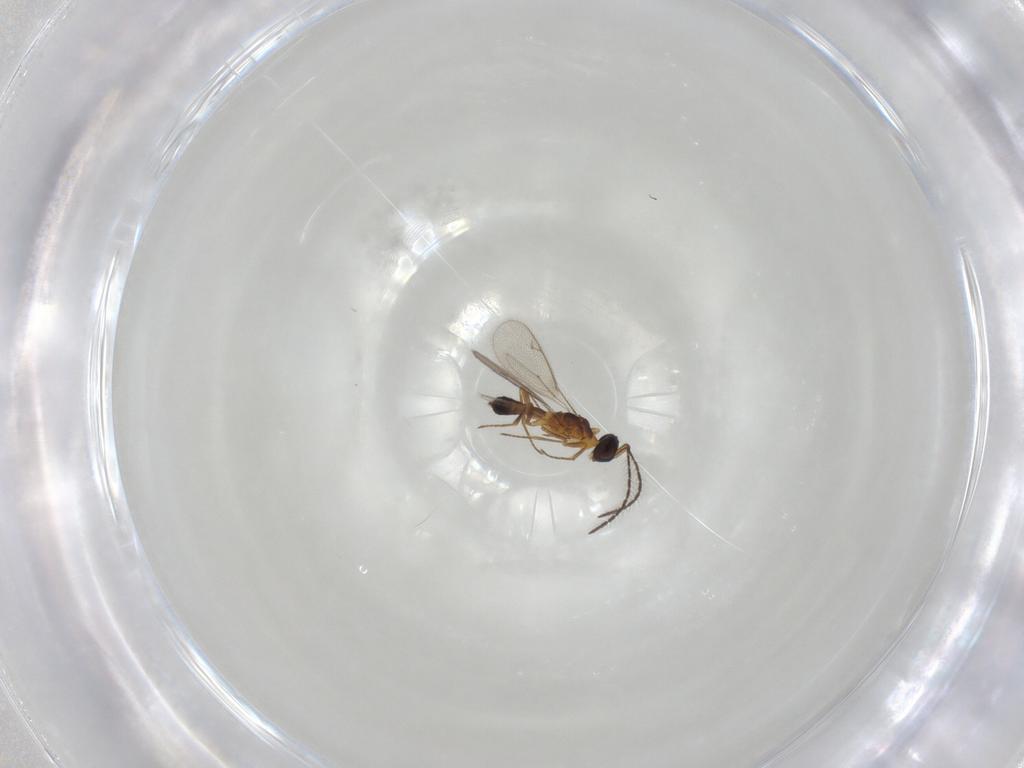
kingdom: Animalia
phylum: Arthropoda
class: Insecta
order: Hymenoptera
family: Eupelmidae
